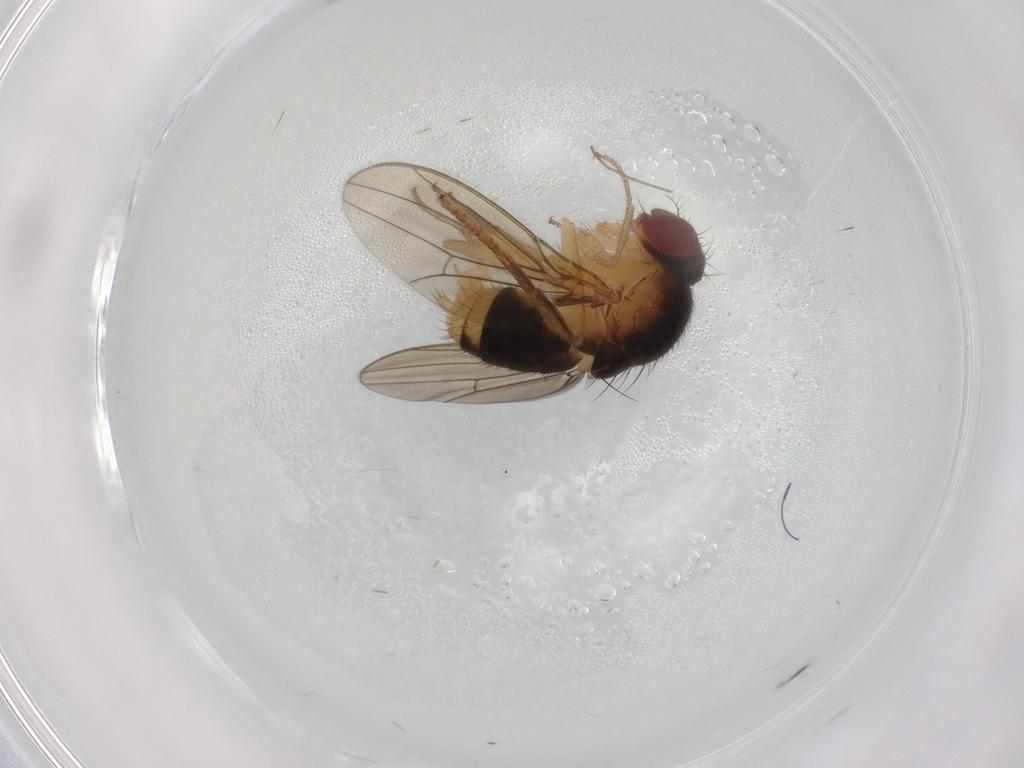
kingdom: Animalia
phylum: Arthropoda
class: Insecta
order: Diptera
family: Limoniidae
